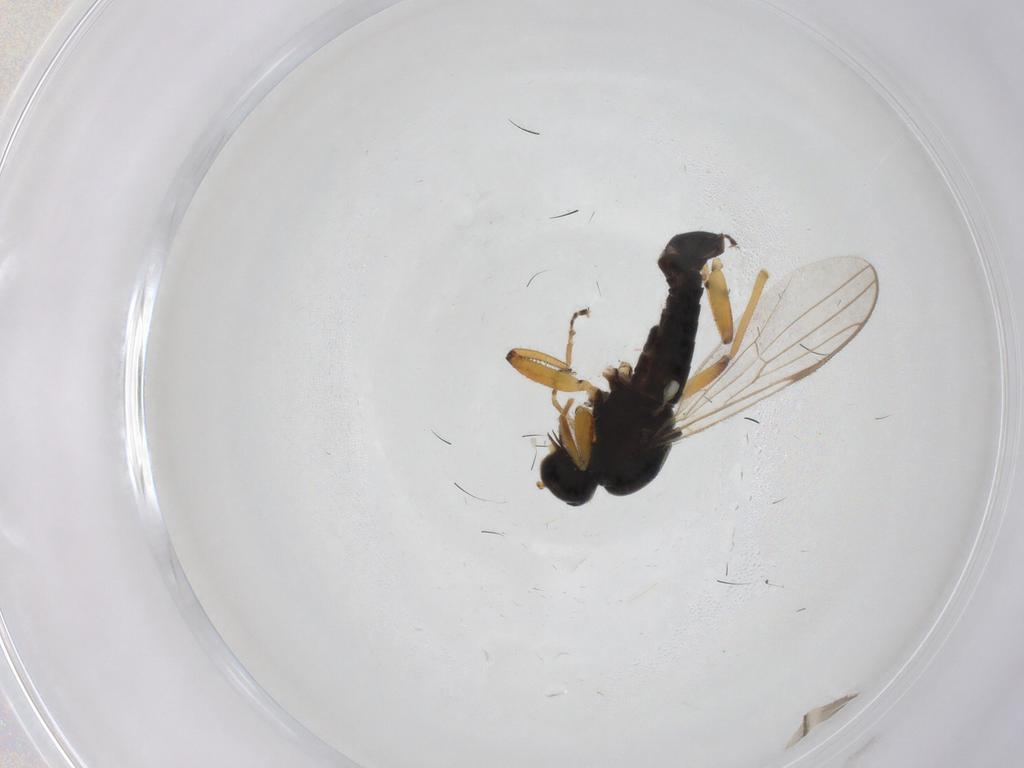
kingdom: Animalia
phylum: Arthropoda
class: Insecta
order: Diptera
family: Hybotidae
